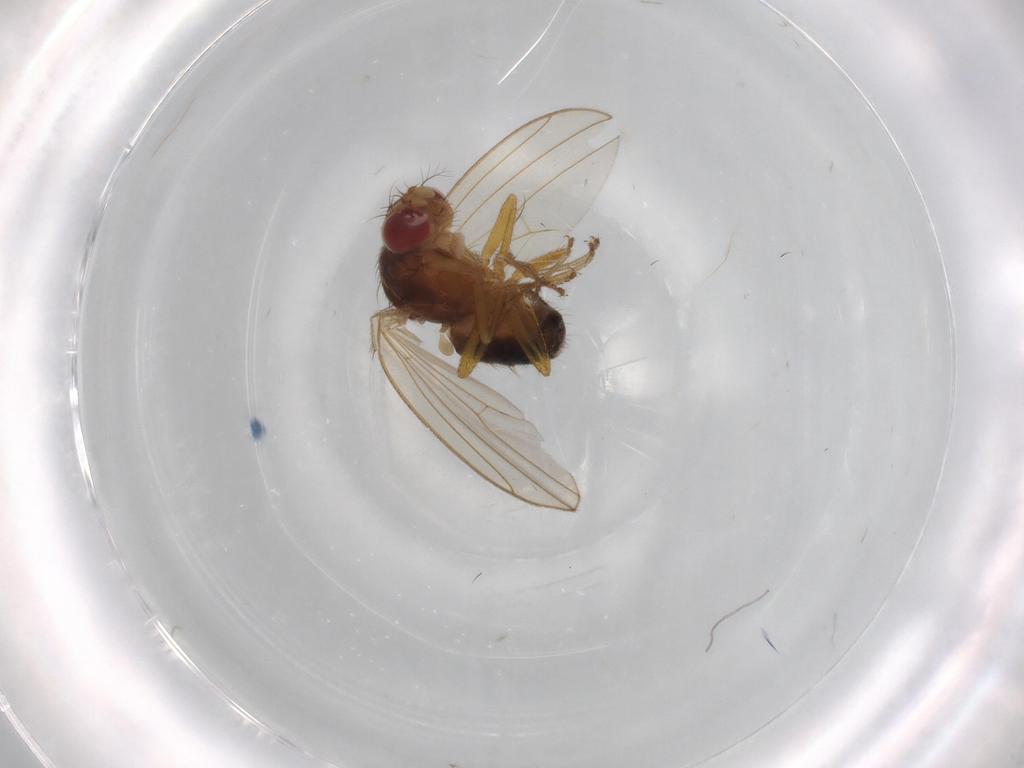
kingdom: Animalia
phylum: Arthropoda
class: Insecta
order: Diptera
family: Drosophilidae
